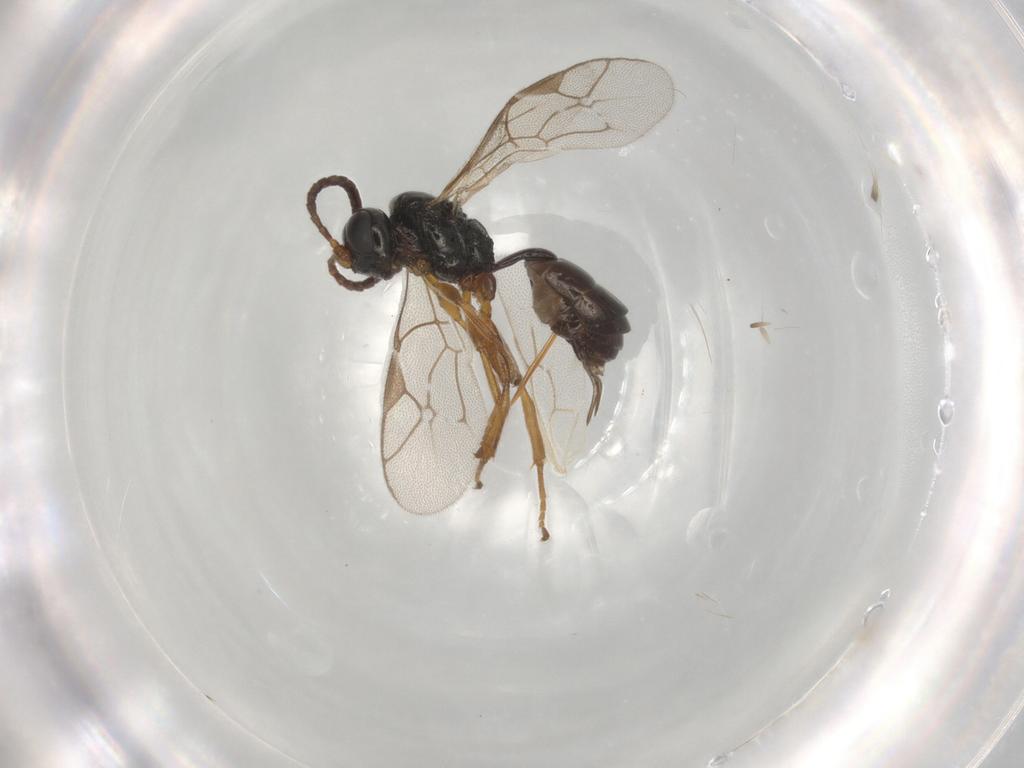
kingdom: Animalia
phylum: Arthropoda
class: Insecta
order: Hymenoptera
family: Ichneumonidae
